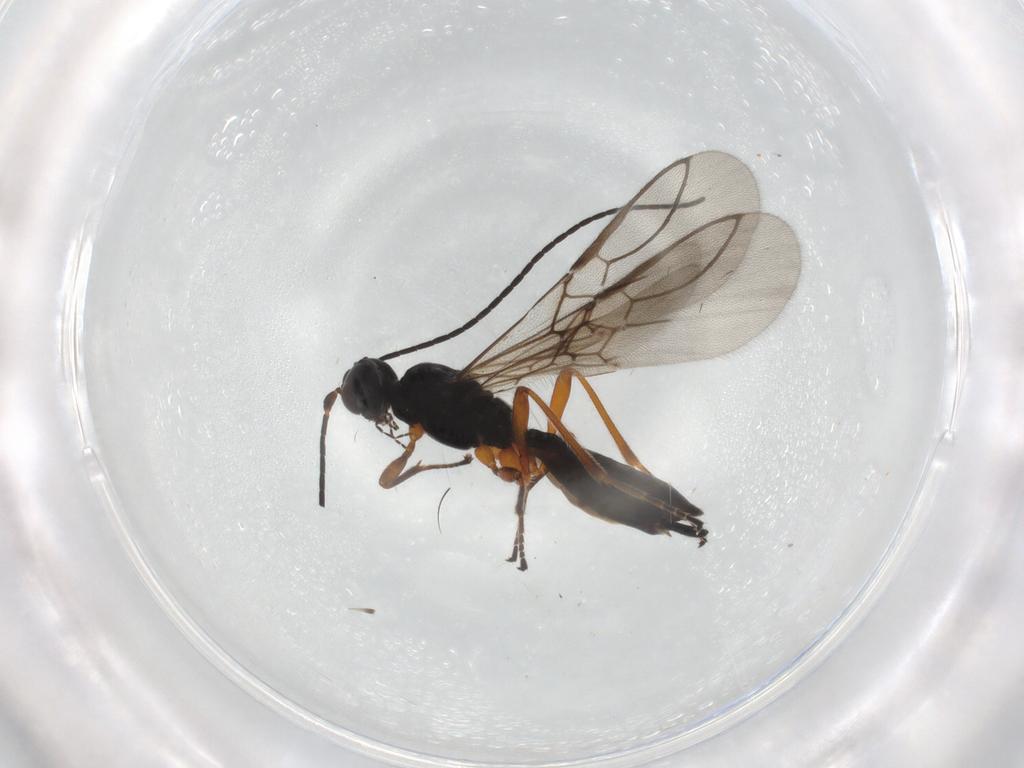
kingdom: Animalia
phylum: Arthropoda
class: Insecta
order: Hymenoptera
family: Braconidae
